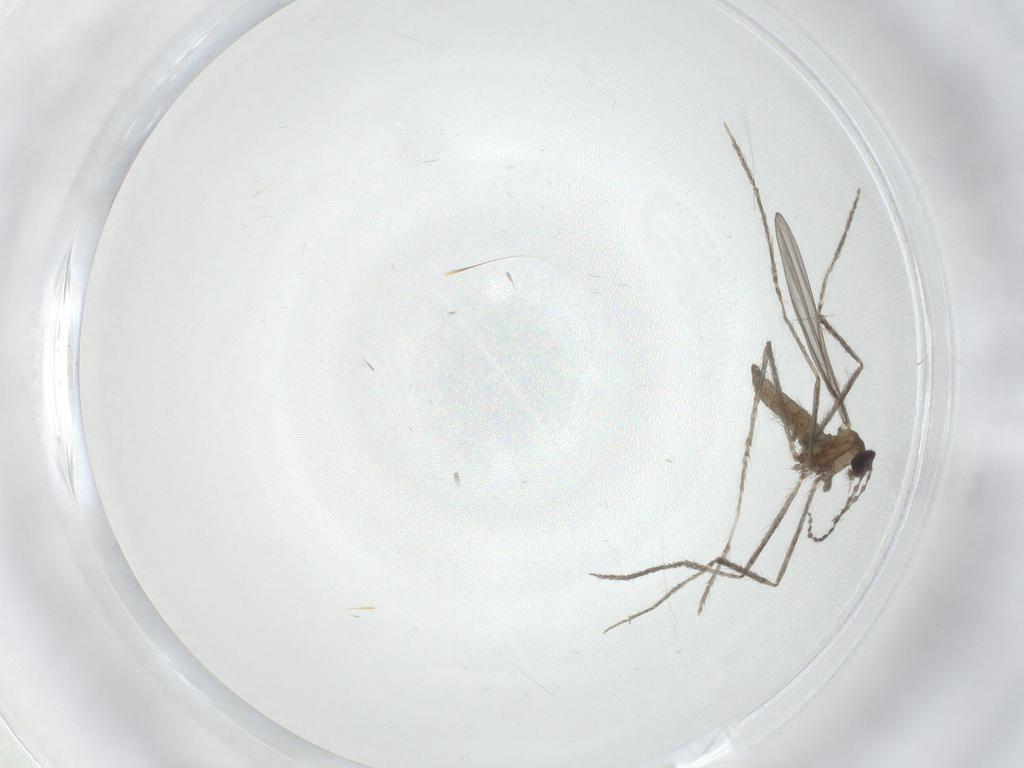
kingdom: Animalia
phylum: Arthropoda
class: Insecta
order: Diptera
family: Cecidomyiidae
